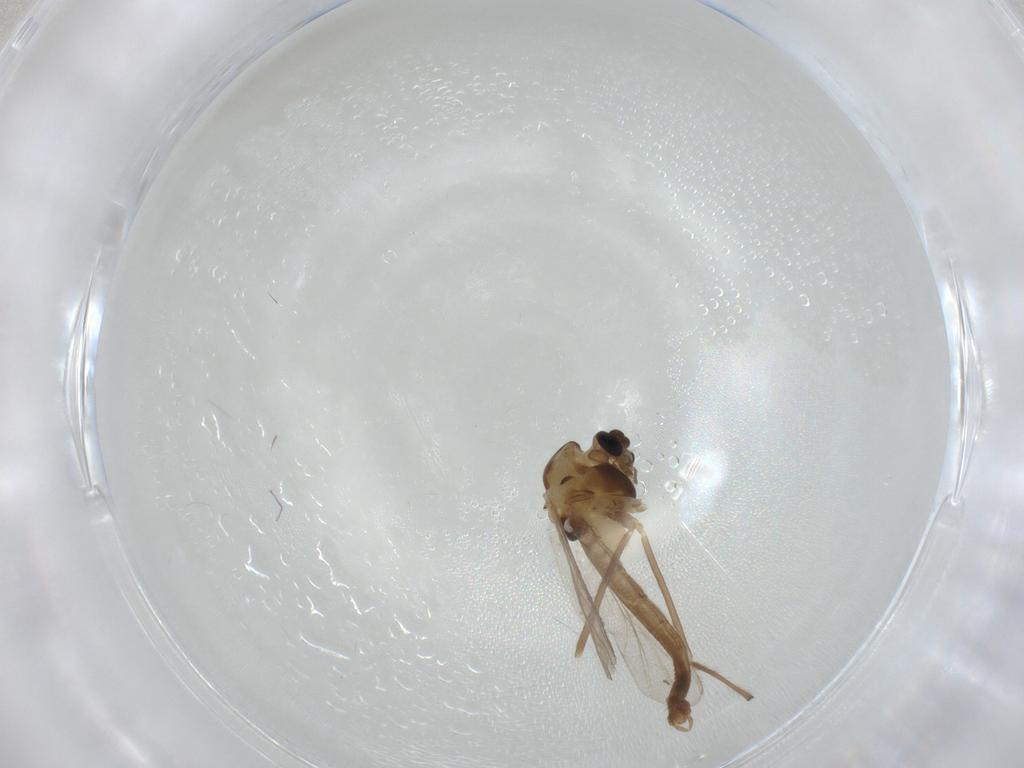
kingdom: Animalia
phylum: Arthropoda
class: Insecta
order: Diptera
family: Chironomidae
